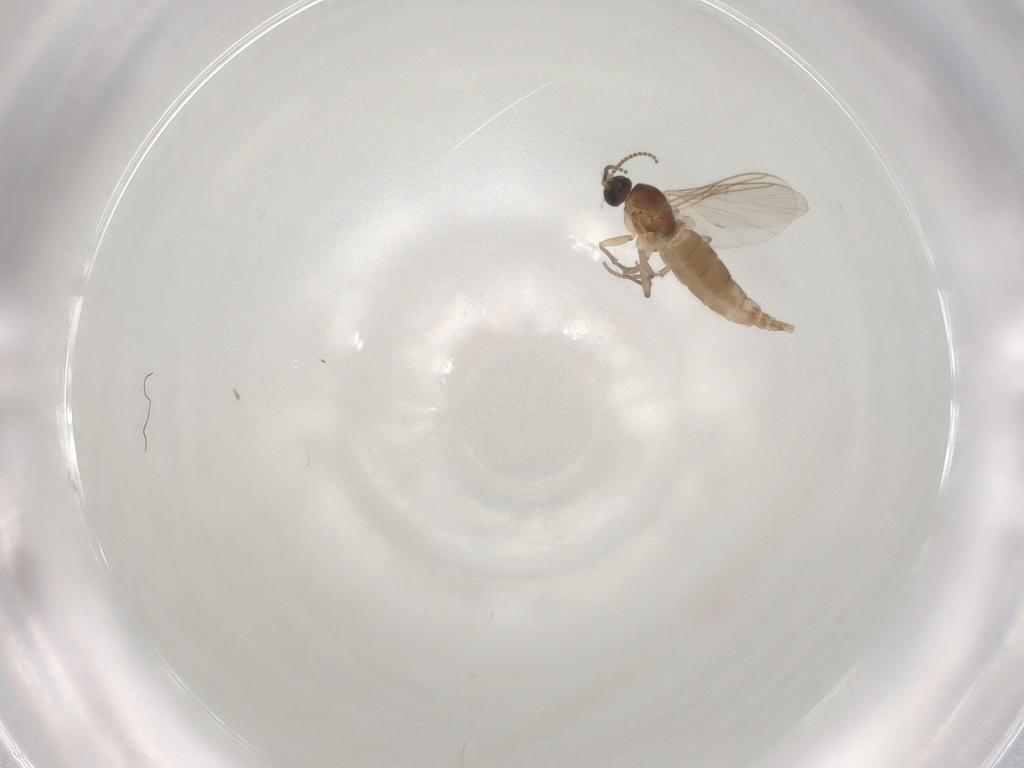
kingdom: Animalia
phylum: Arthropoda
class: Insecta
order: Diptera
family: Sciaridae
